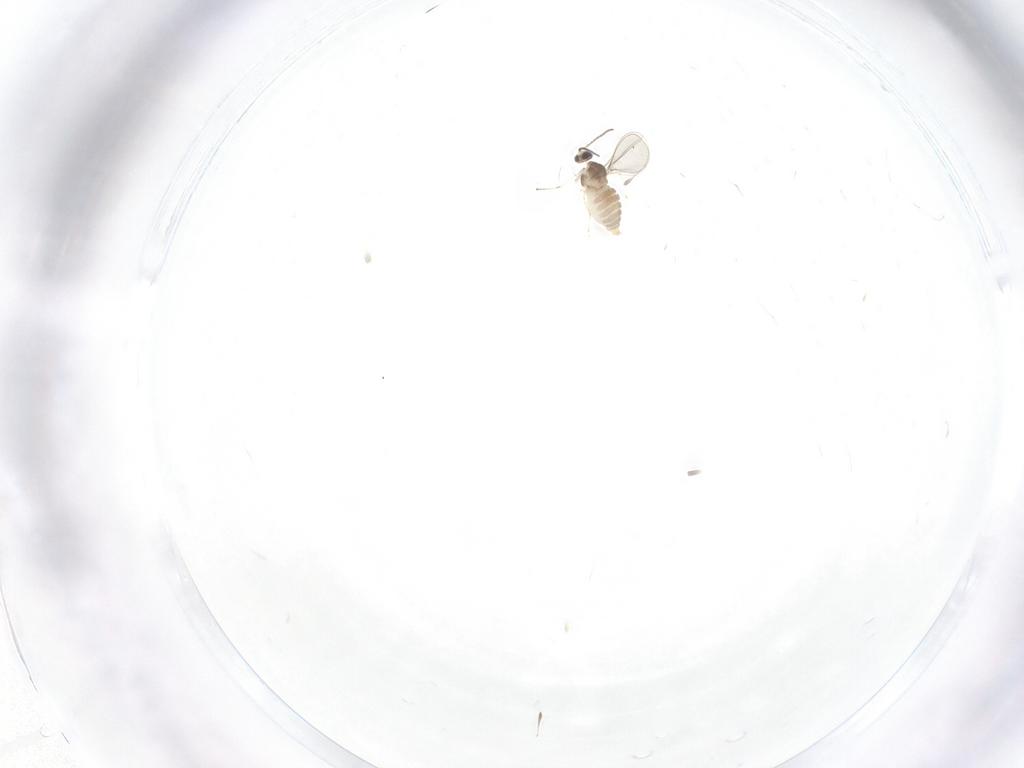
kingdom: Animalia
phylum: Arthropoda
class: Insecta
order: Diptera
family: Cecidomyiidae
